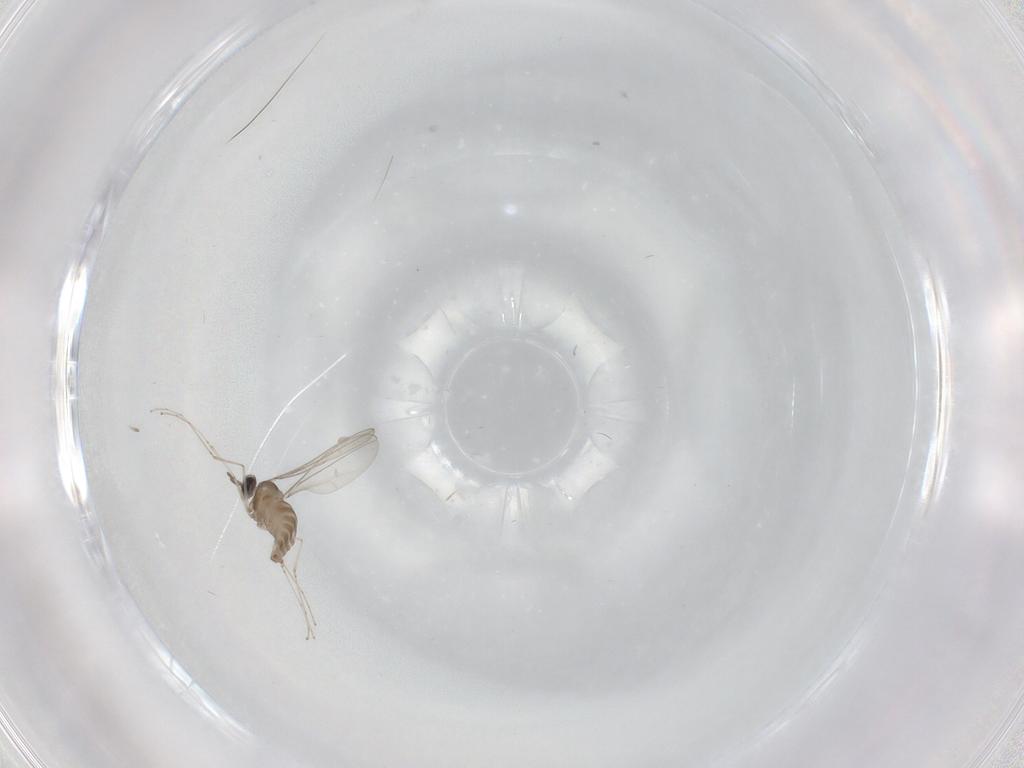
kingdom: Animalia
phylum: Arthropoda
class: Insecta
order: Diptera
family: Cecidomyiidae
